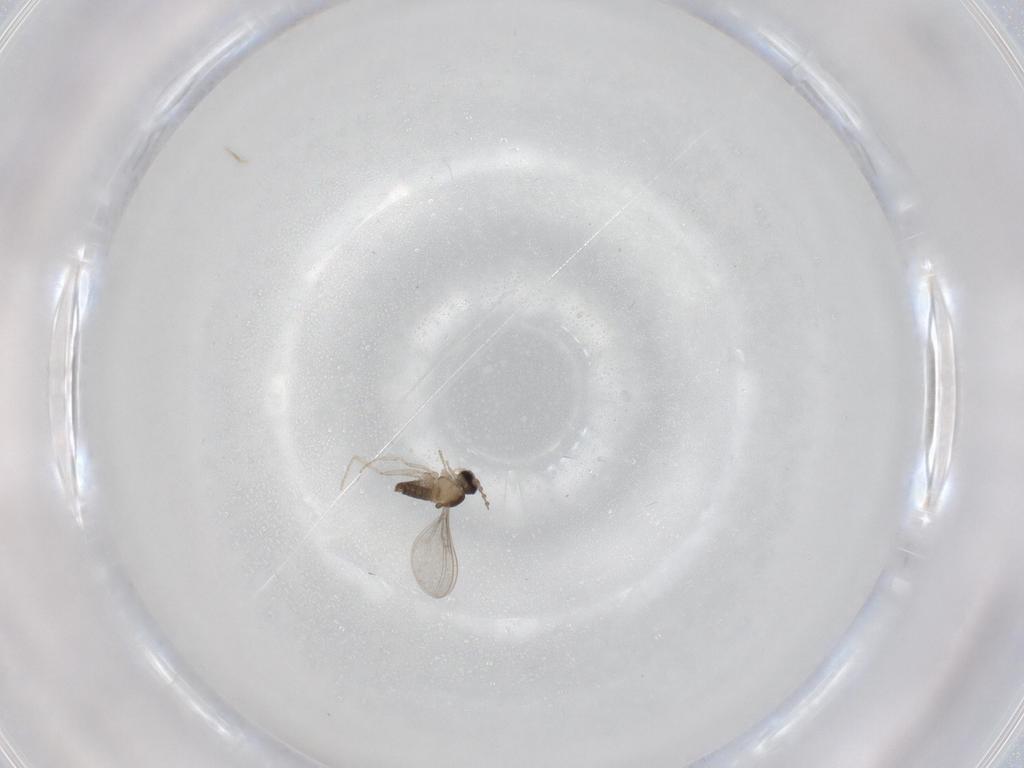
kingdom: Animalia
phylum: Arthropoda
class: Insecta
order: Diptera
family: Cecidomyiidae
